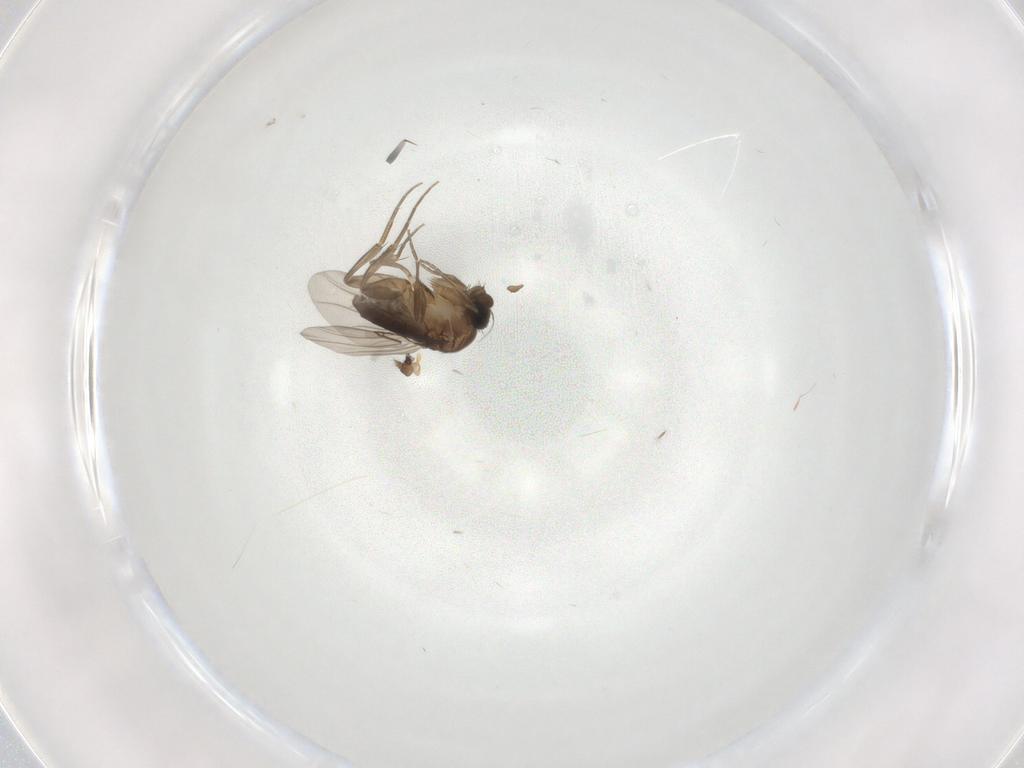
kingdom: Animalia
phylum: Arthropoda
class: Insecta
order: Diptera
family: Phoridae
